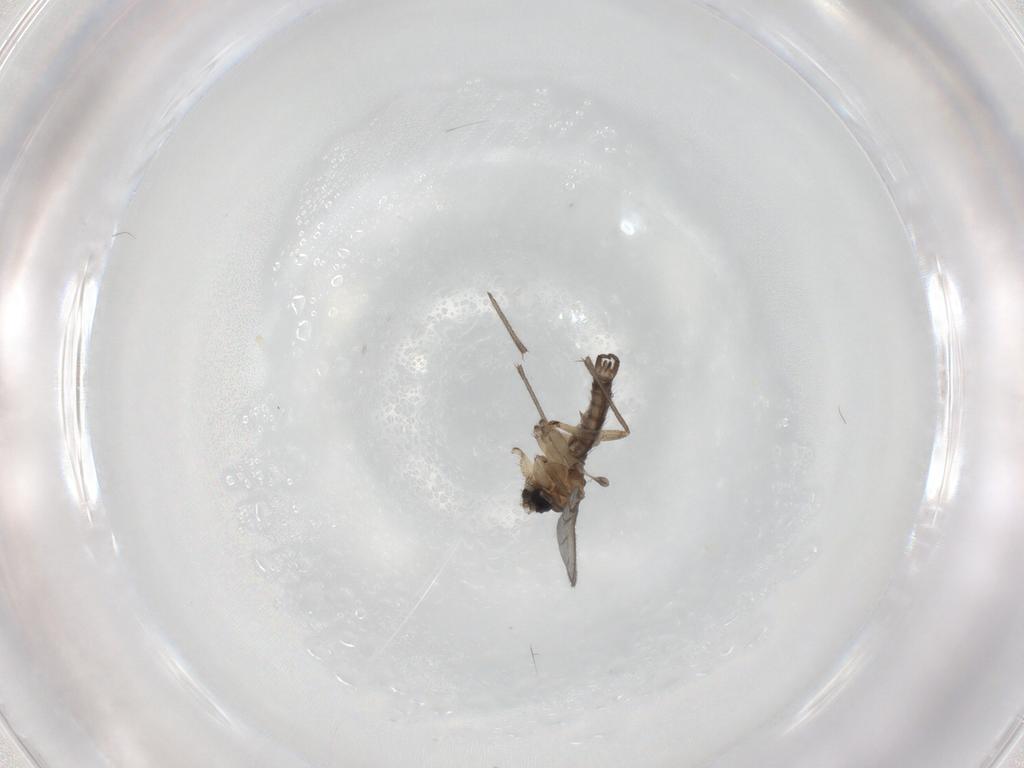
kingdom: Animalia
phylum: Arthropoda
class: Insecta
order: Diptera
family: Sciaridae
